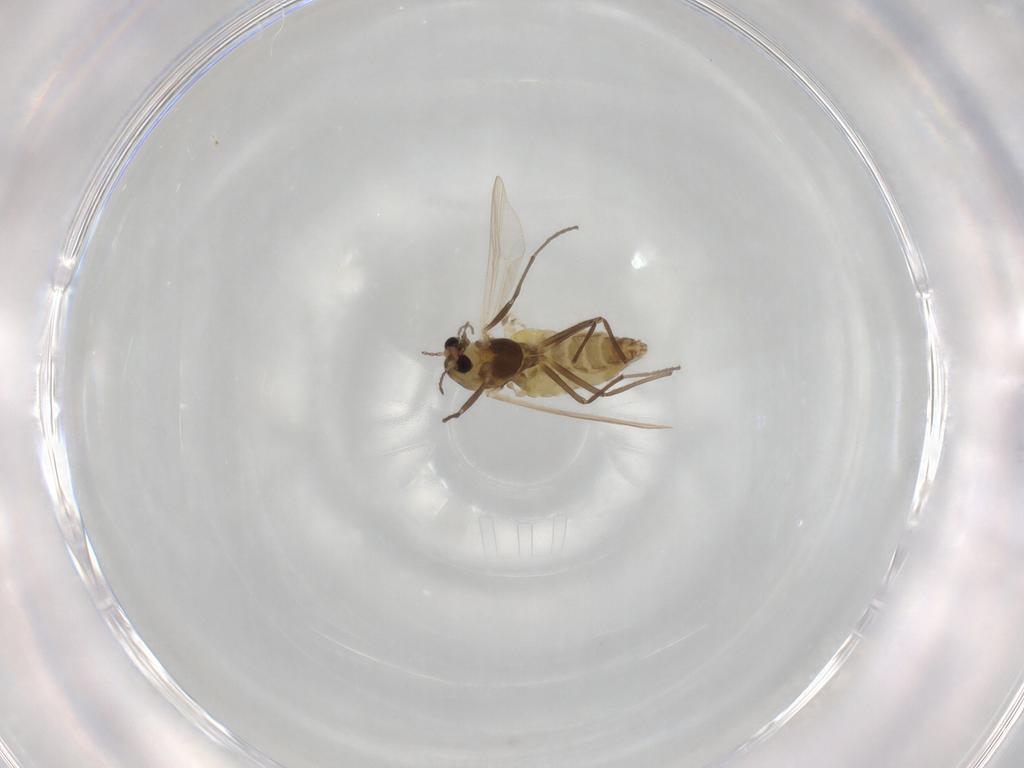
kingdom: Animalia
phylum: Arthropoda
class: Insecta
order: Diptera
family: Chironomidae
